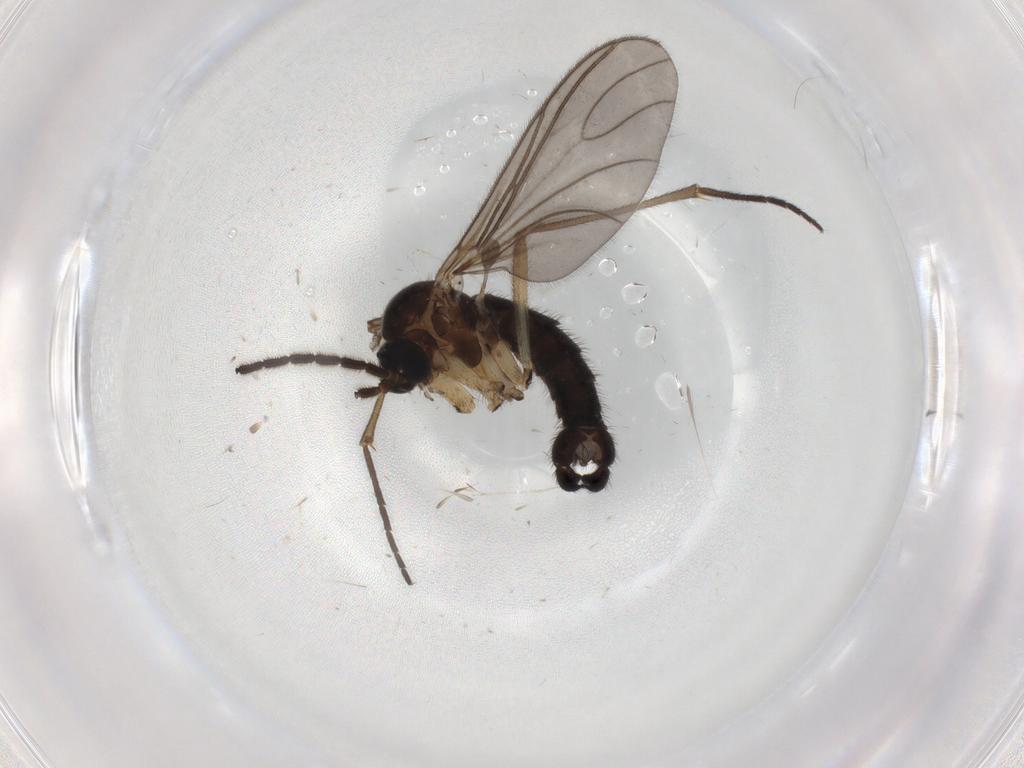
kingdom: Animalia
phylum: Arthropoda
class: Insecta
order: Diptera
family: Sciaridae
